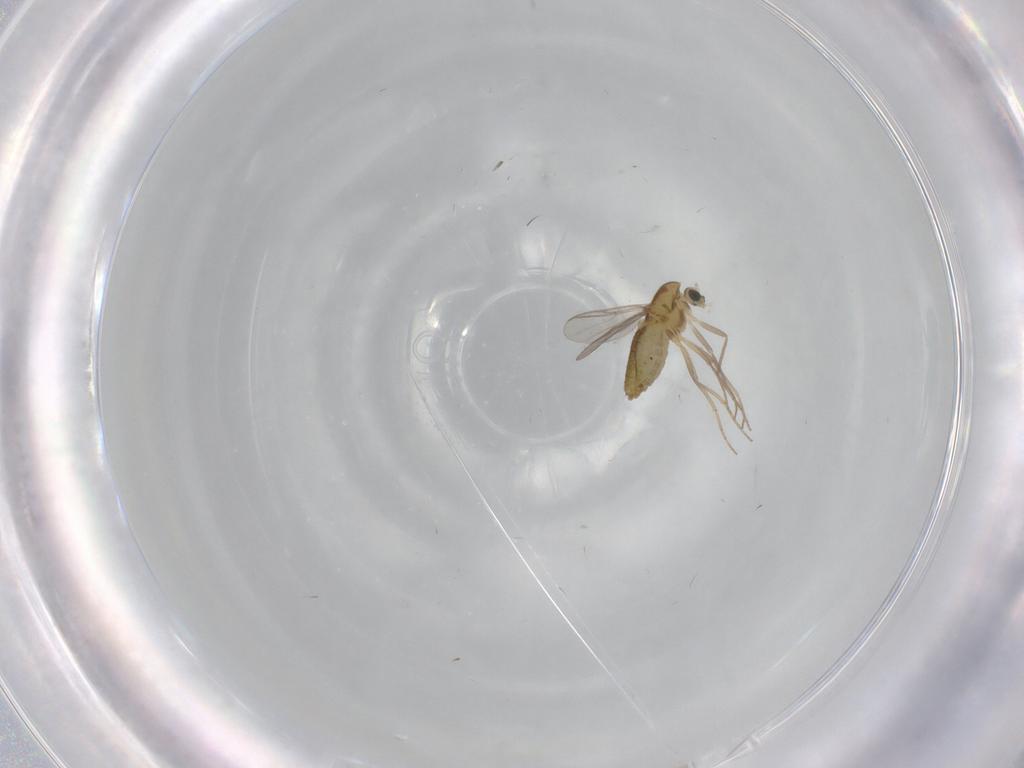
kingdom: Animalia
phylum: Arthropoda
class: Insecta
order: Diptera
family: Chironomidae
